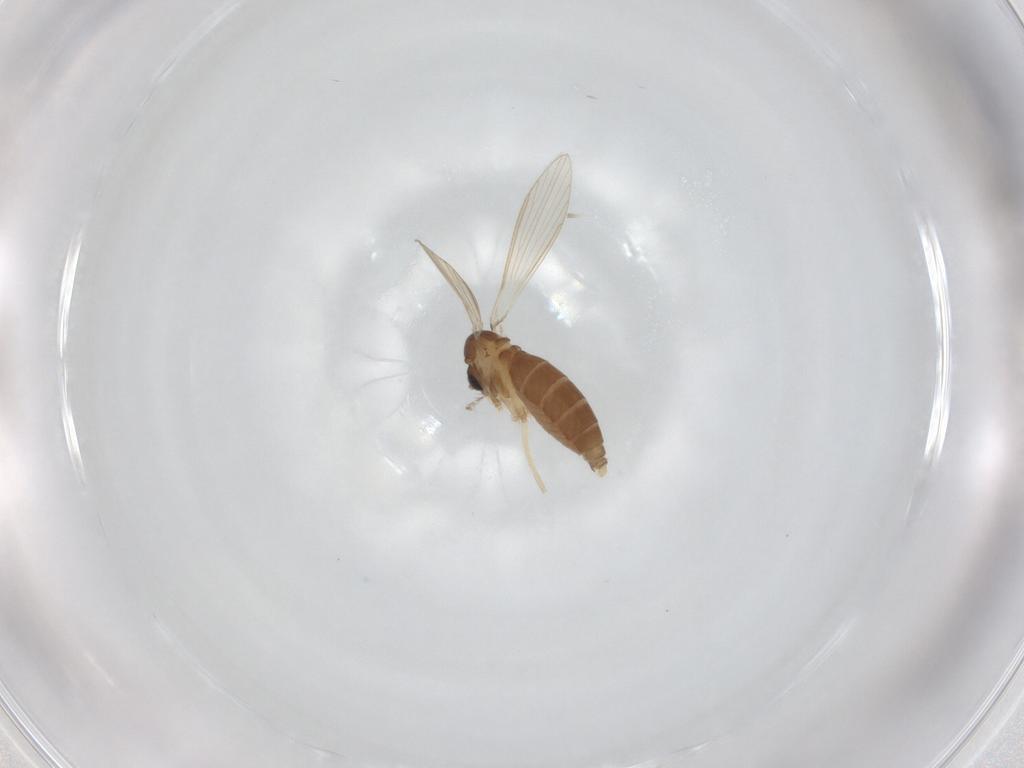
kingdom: Animalia
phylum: Arthropoda
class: Insecta
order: Diptera
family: Psychodidae
